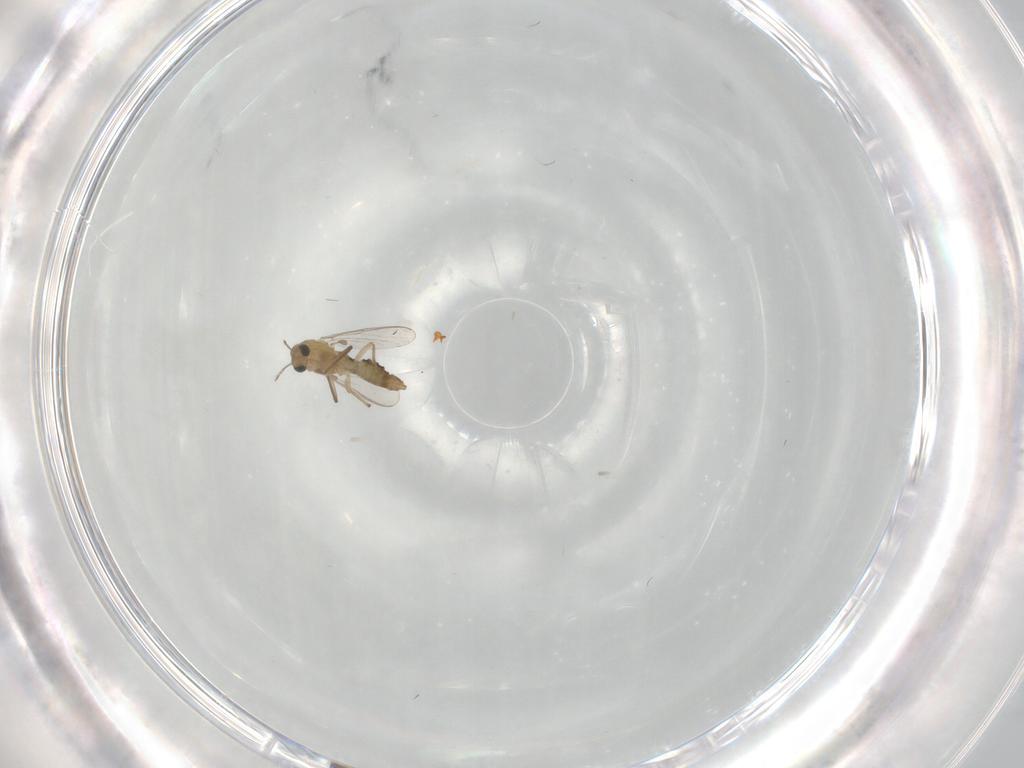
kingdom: Animalia
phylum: Arthropoda
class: Insecta
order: Diptera
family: Chironomidae
